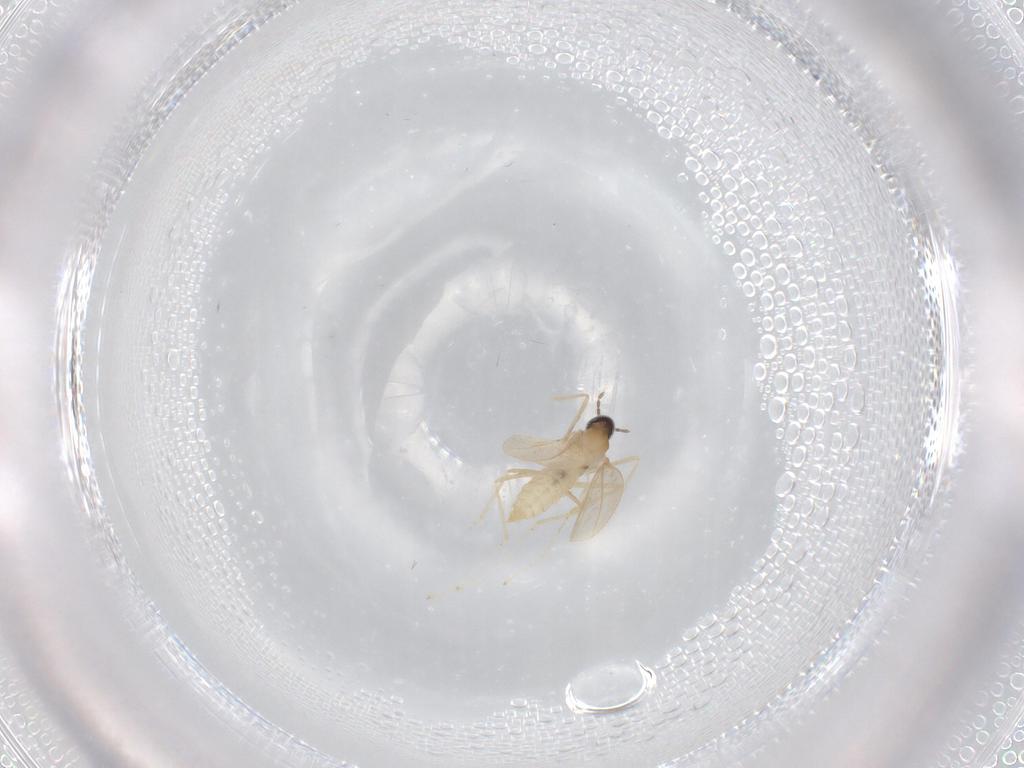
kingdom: Animalia
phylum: Arthropoda
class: Insecta
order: Diptera
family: Cecidomyiidae
